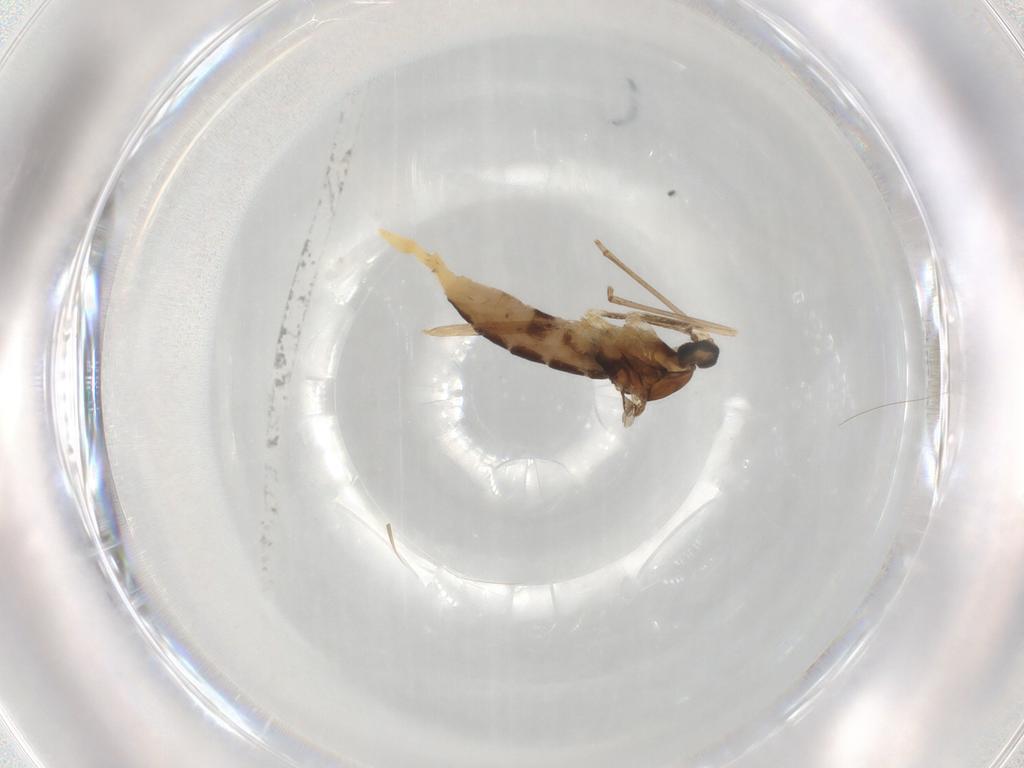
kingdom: Animalia
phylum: Arthropoda
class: Insecta
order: Diptera
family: Cecidomyiidae
